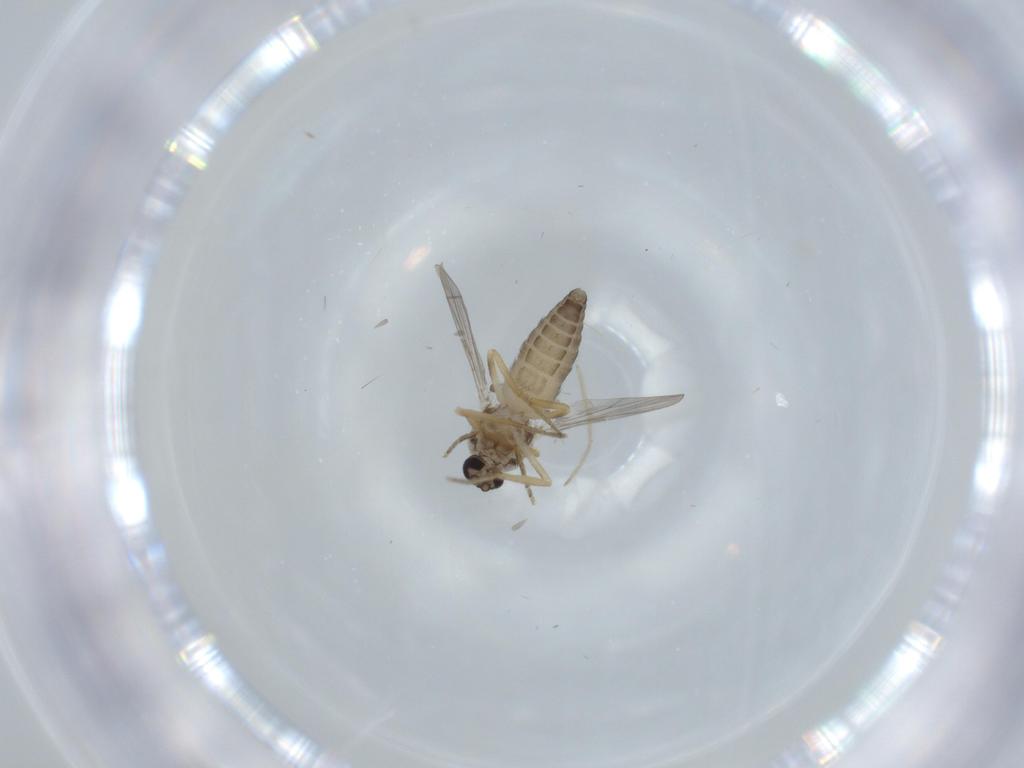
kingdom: Animalia
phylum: Arthropoda
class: Insecta
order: Diptera
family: Ceratopogonidae
